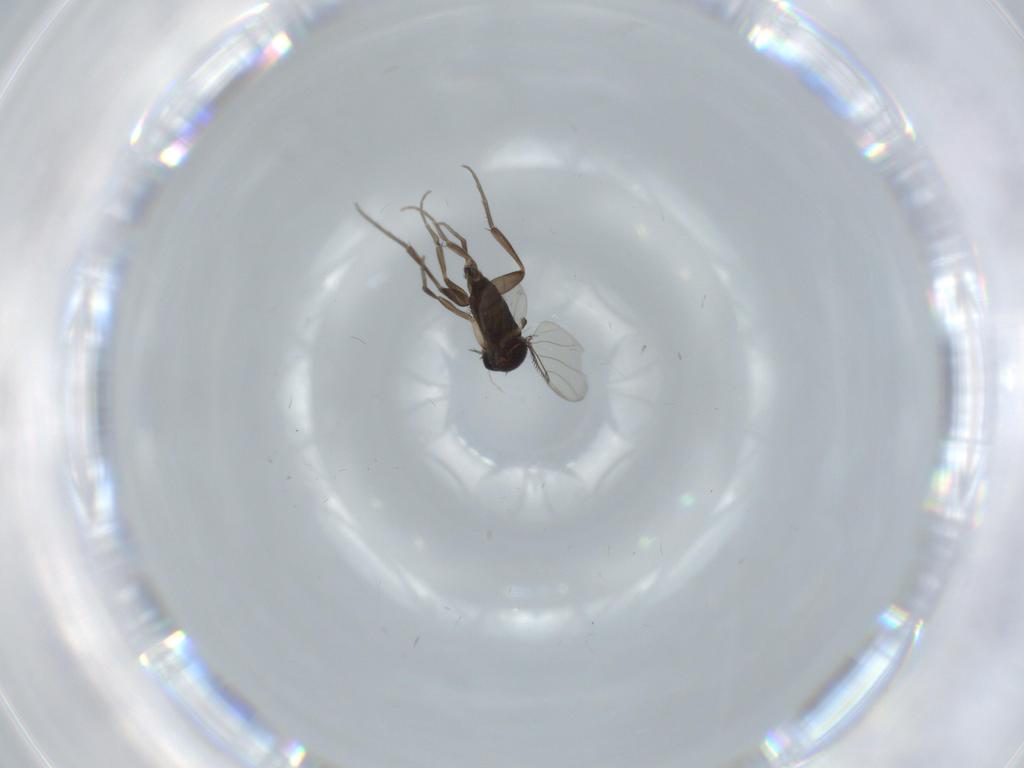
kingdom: Animalia
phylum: Arthropoda
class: Insecta
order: Diptera
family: Phoridae
